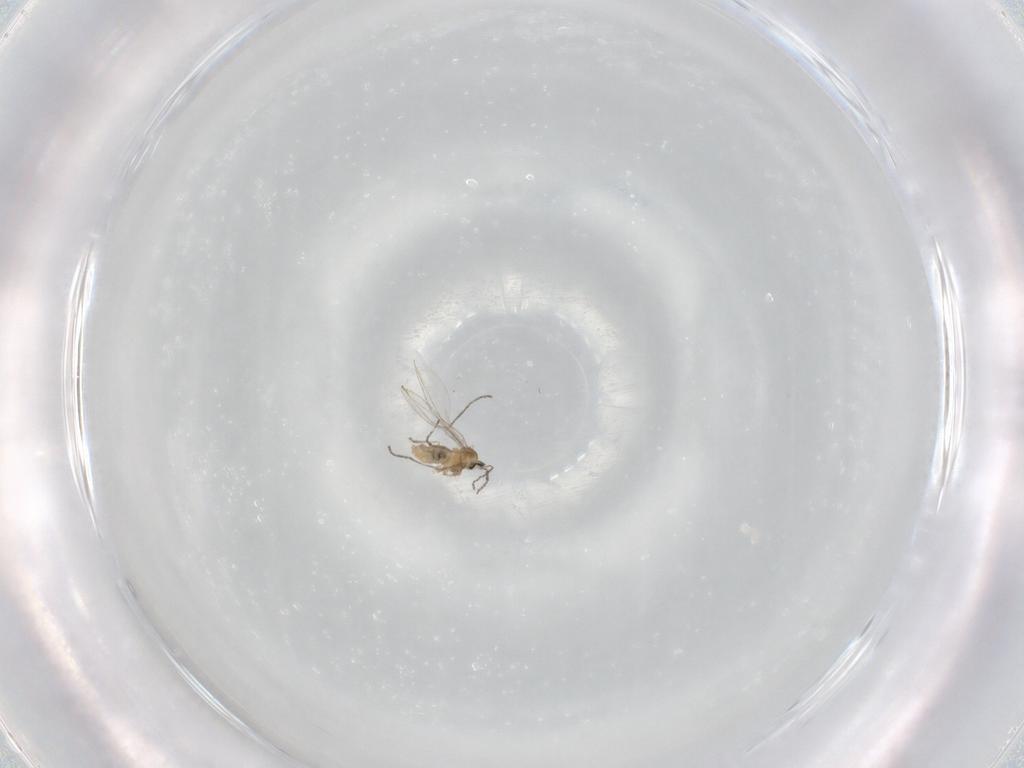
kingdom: Animalia
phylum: Arthropoda
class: Insecta
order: Diptera
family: Cecidomyiidae
